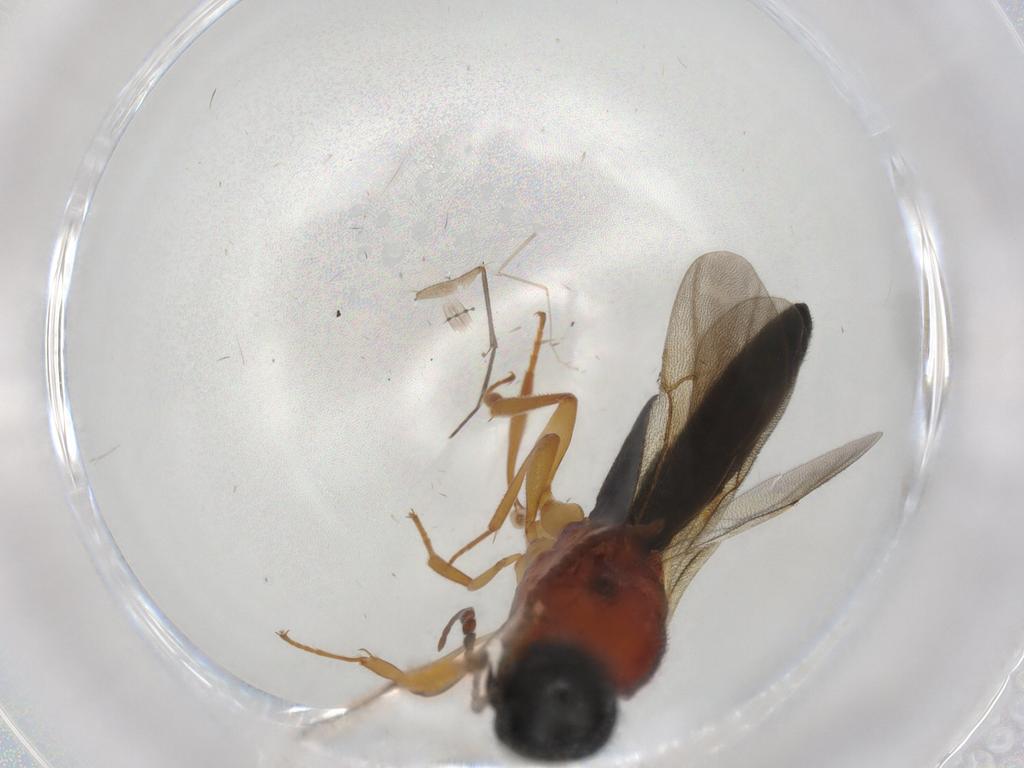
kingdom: Animalia
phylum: Arthropoda
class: Insecta
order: Hymenoptera
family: Scelionidae
